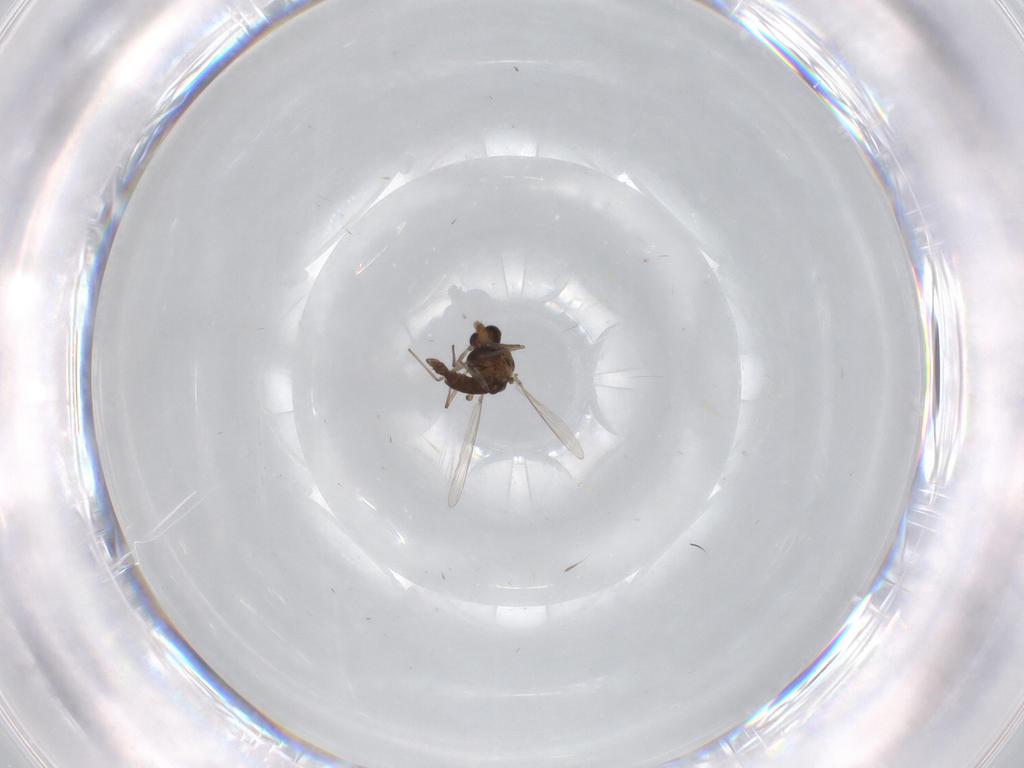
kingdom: Animalia
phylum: Arthropoda
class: Insecta
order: Diptera
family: Chironomidae
